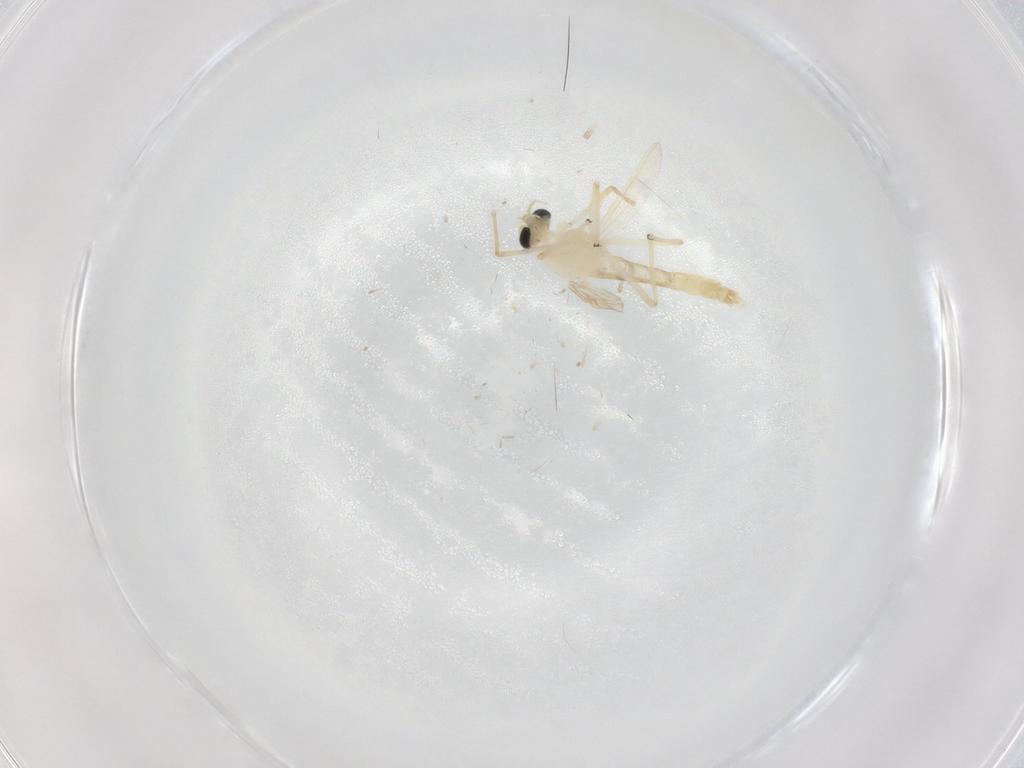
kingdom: Animalia
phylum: Arthropoda
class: Insecta
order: Diptera
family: Chironomidae
